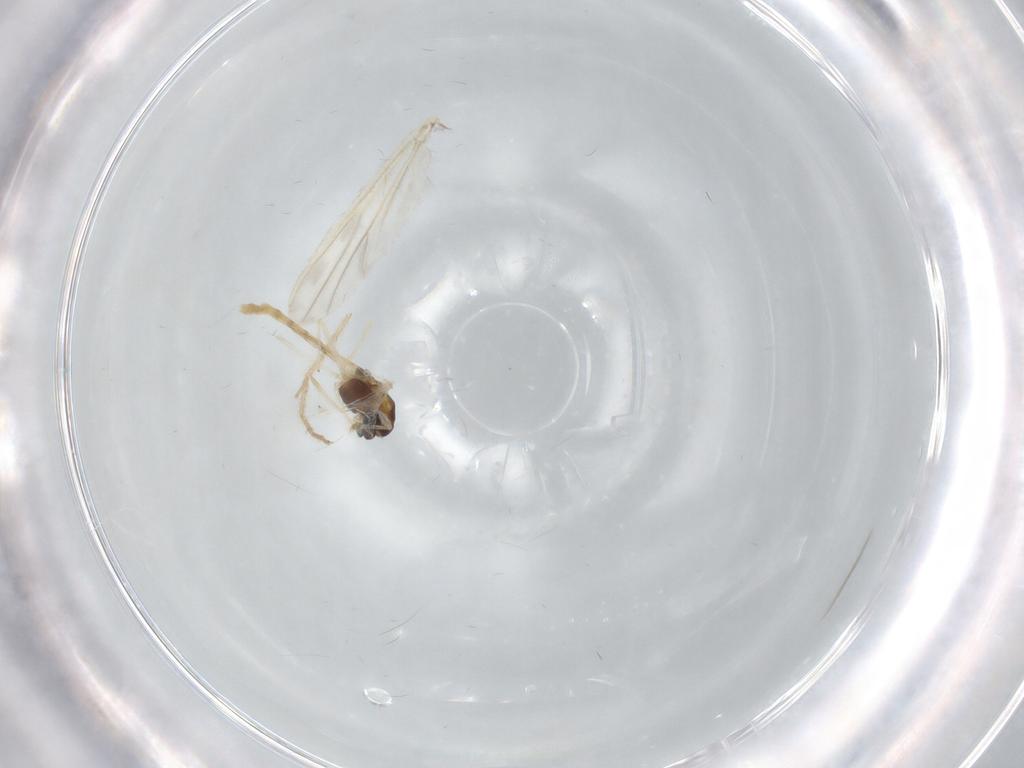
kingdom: Animalia
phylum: Arthropoda
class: Insecta
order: Diptera
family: Chironomidae
